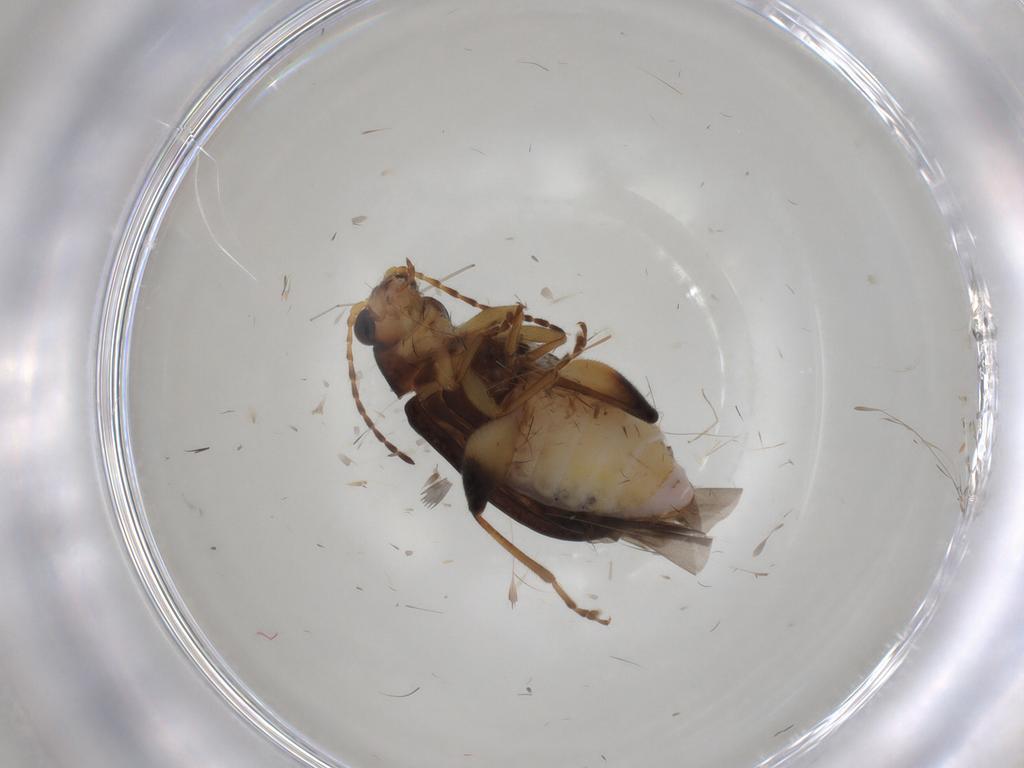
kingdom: Animalia
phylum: Arthropoda
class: Insecta
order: Coleoptera
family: Chrysomelidae
